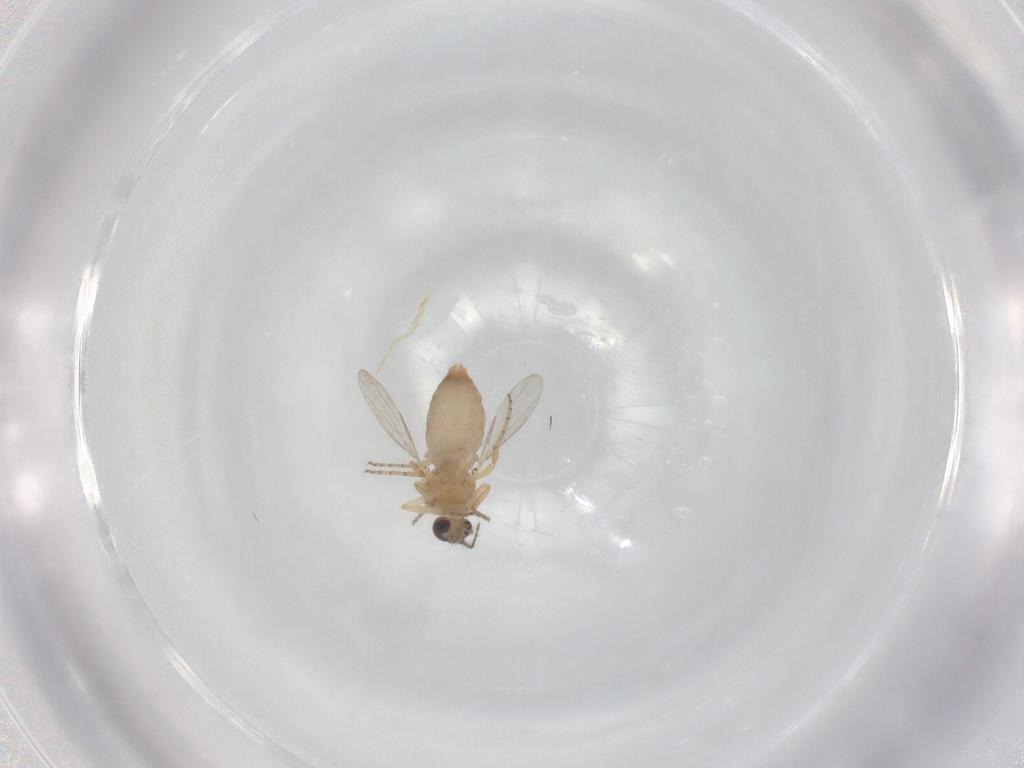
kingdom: Animalia
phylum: Arthropoda
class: Insecta
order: Diptera
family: Ceratopogonidae
